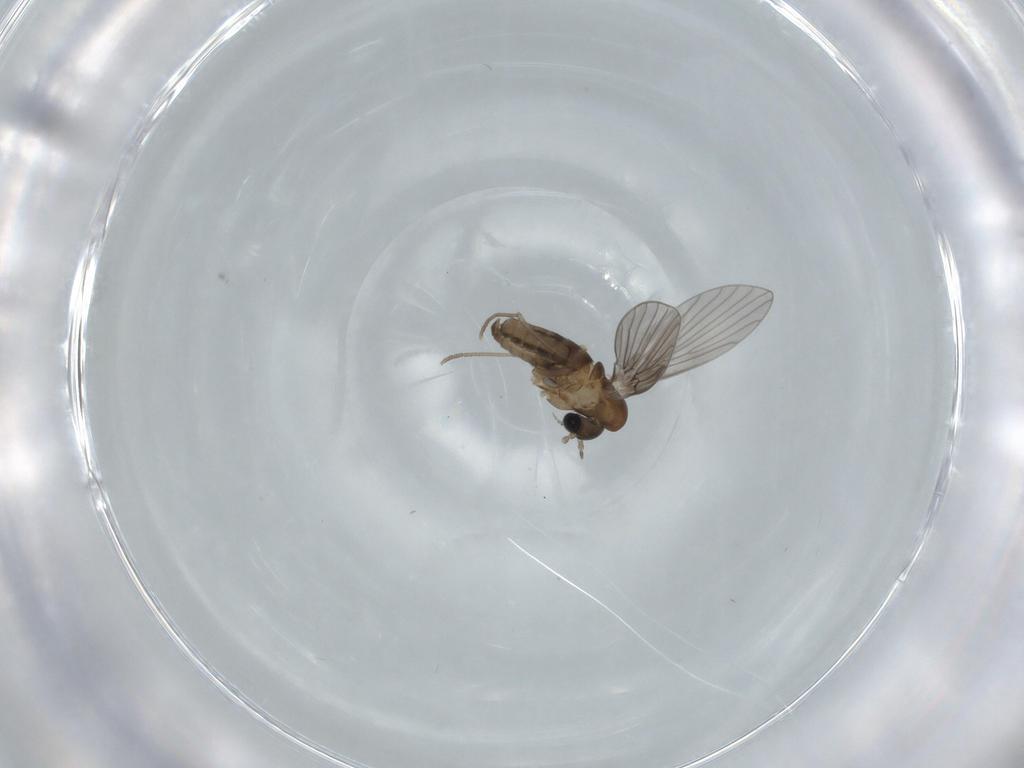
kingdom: Animalia
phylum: Arthropoda
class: Insecta
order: Diptera
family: Psychodidae
